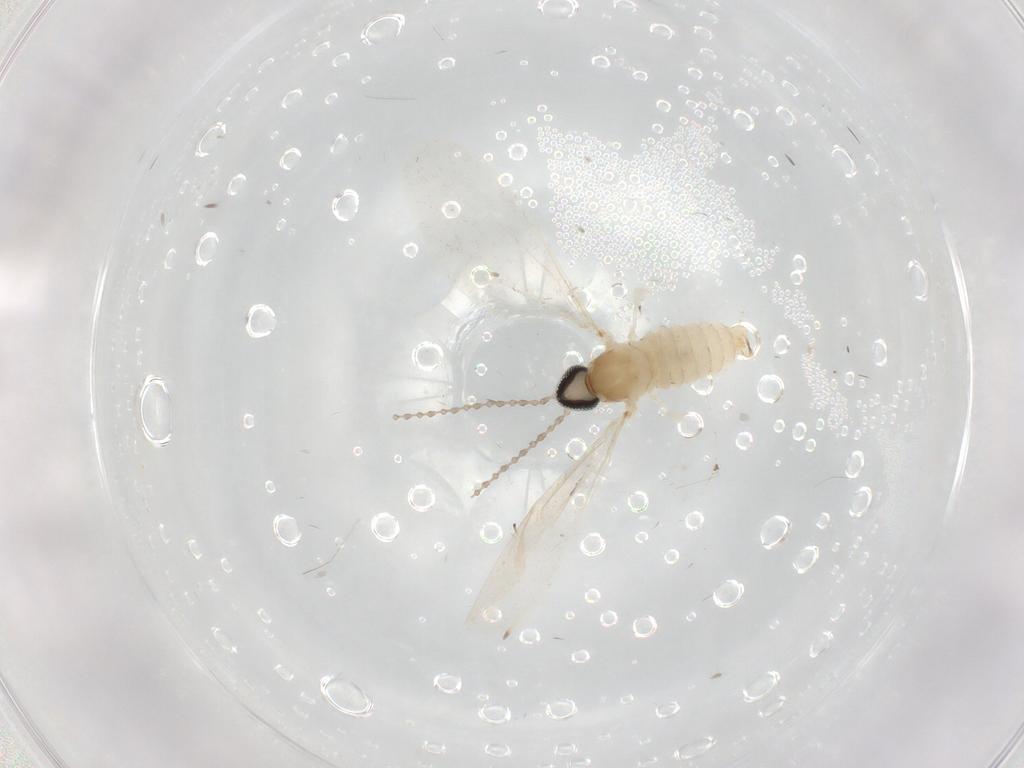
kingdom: Animalia
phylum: Arthropoda
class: Insecta
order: Diptera
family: Cecidomyiidae
